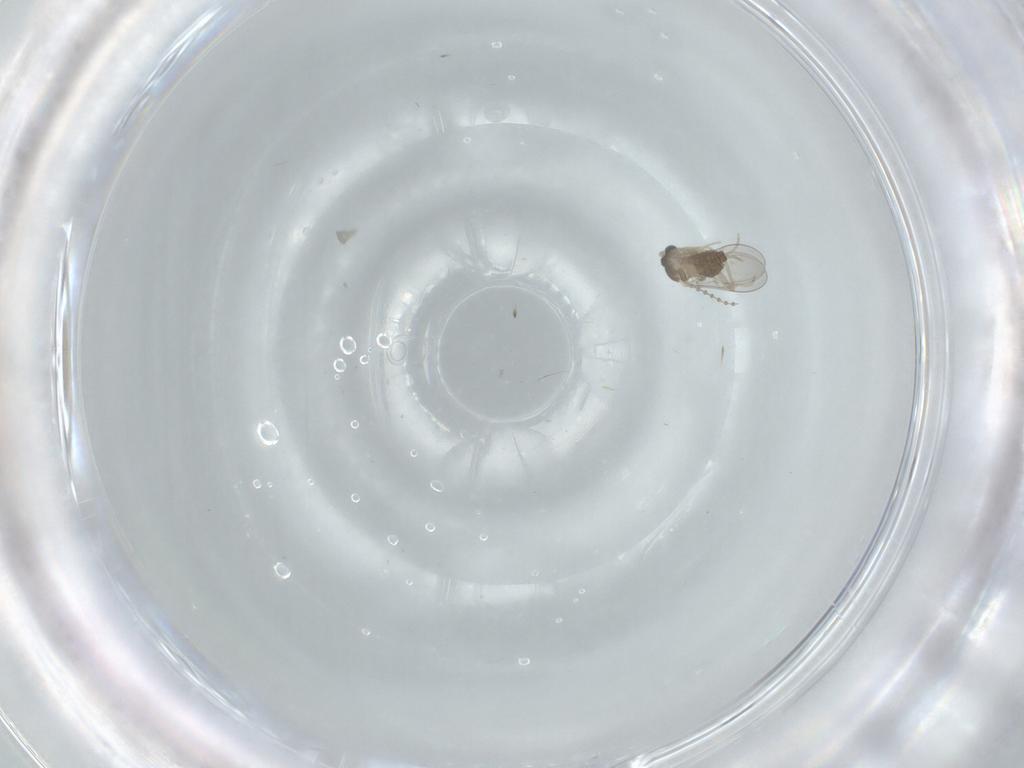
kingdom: Animalia
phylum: Arthropoda
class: Insecta
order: Diptera
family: Cecidomyiidae
